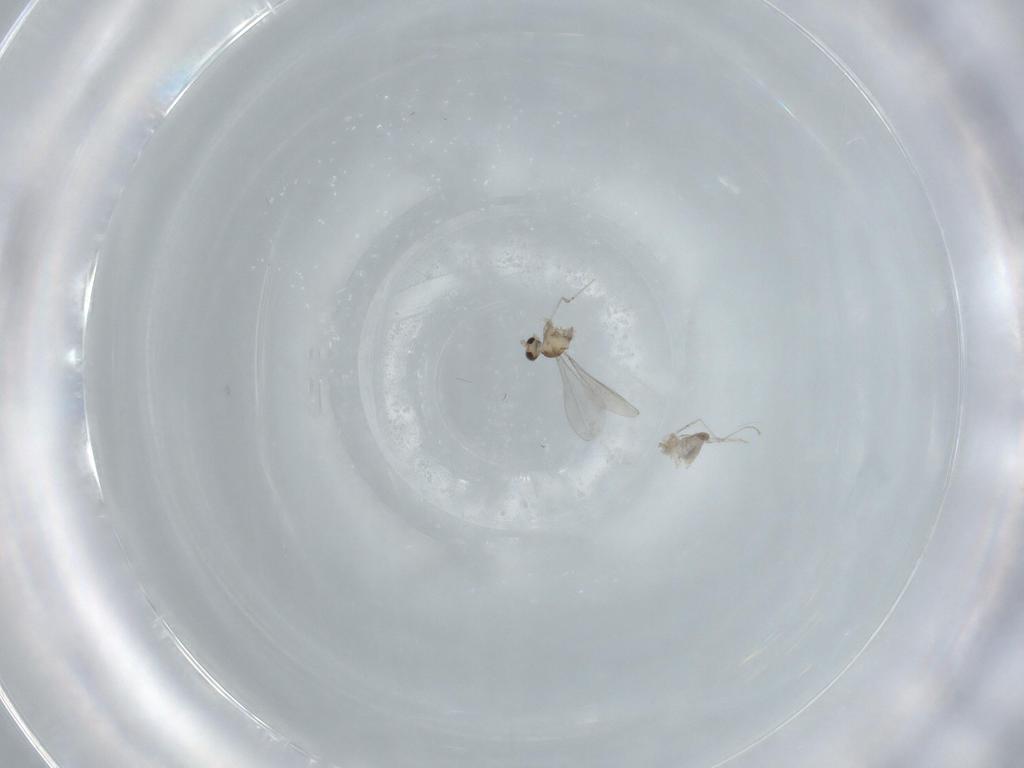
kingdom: Animalia
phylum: Arthropoda
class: Insecta
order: Diptera
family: Cecidomyiidae
